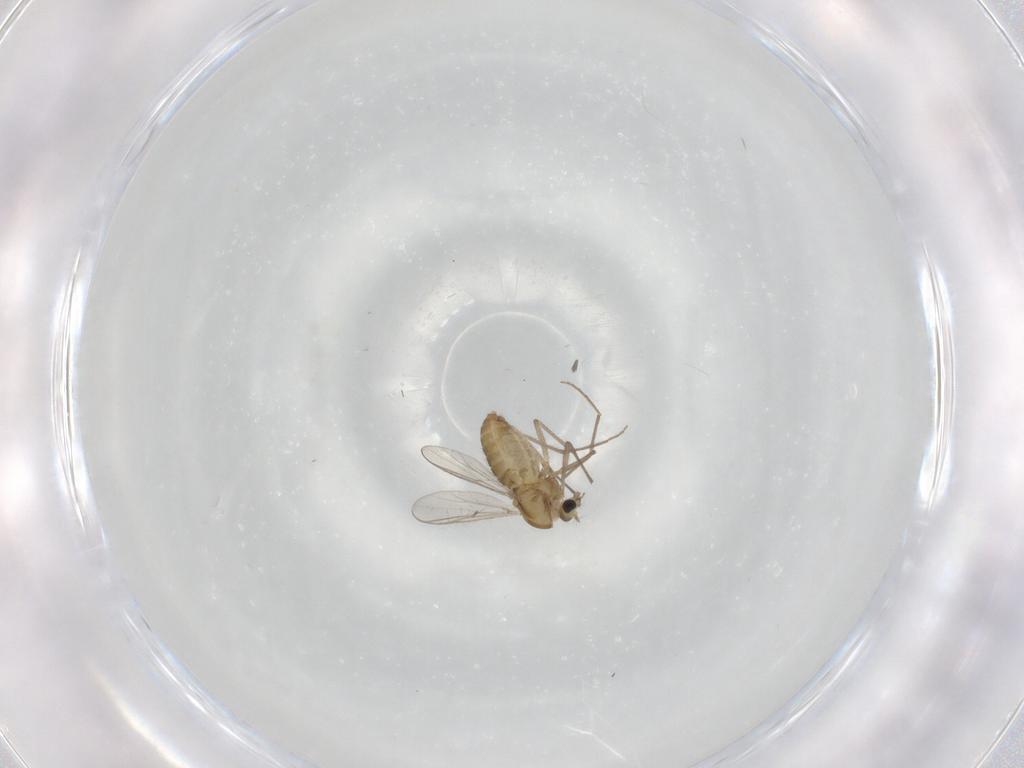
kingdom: Animalia
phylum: Arthropoda
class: Insecta
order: Diptera
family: Chironomidae
